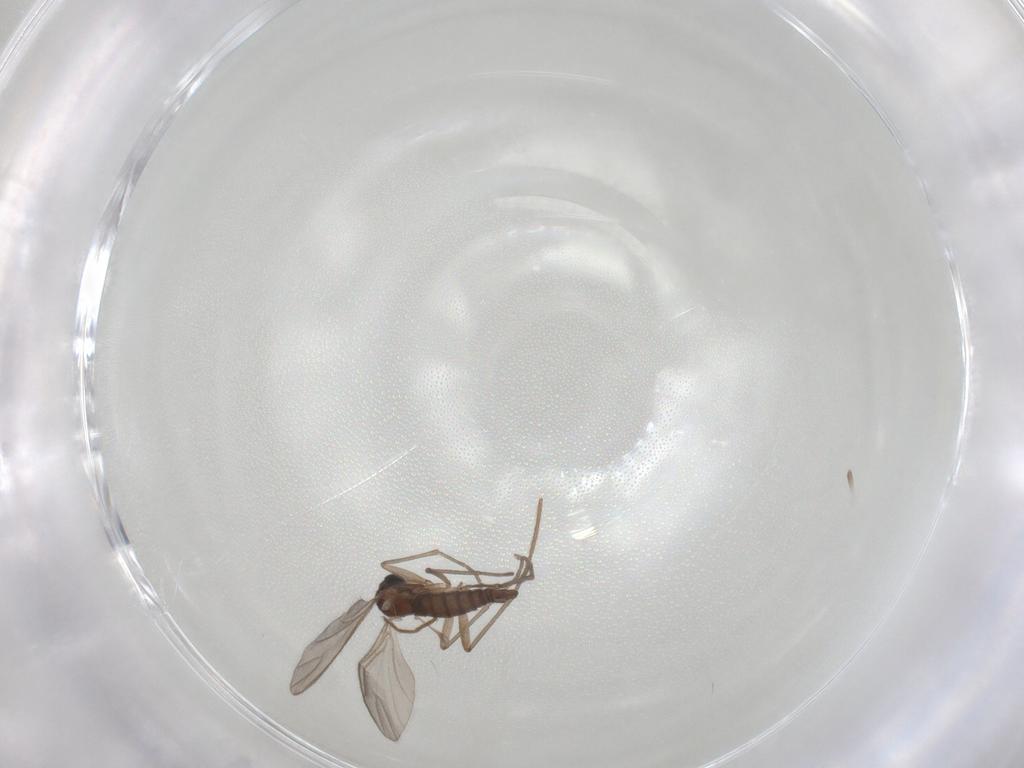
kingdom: Animalia
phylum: Arthropoda
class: Insecta
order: Diptera
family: Sciaridae
